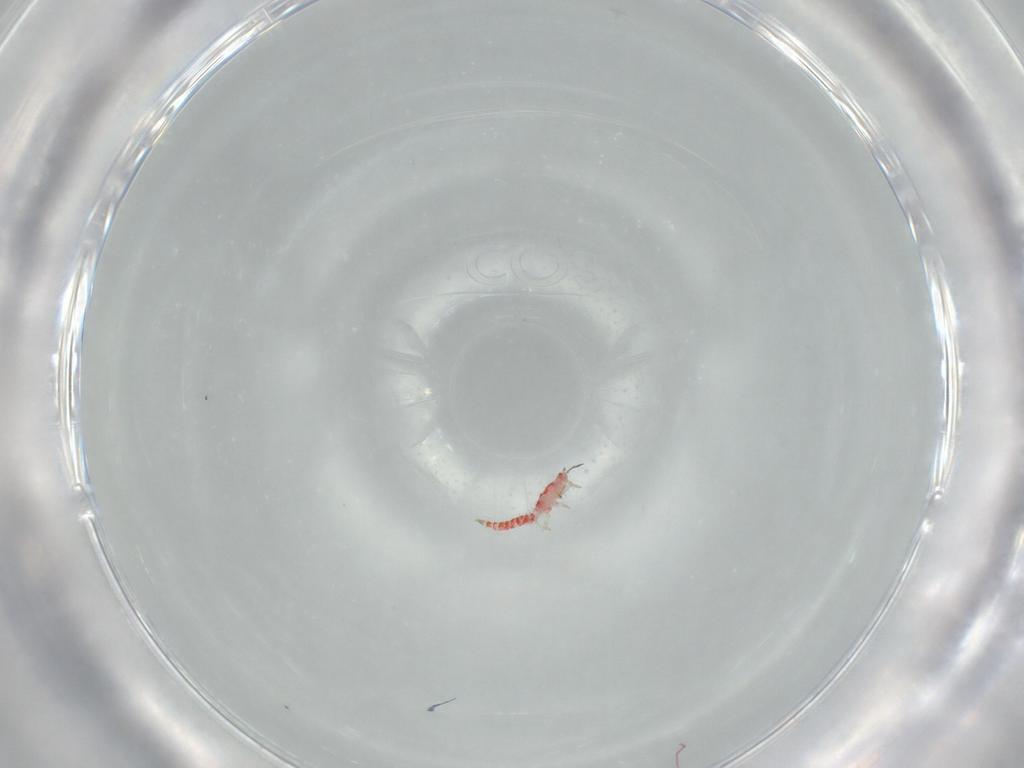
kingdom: Animalia
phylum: Arthropoda
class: Insecta
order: Thysanoptera
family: Phlaeothripidae
